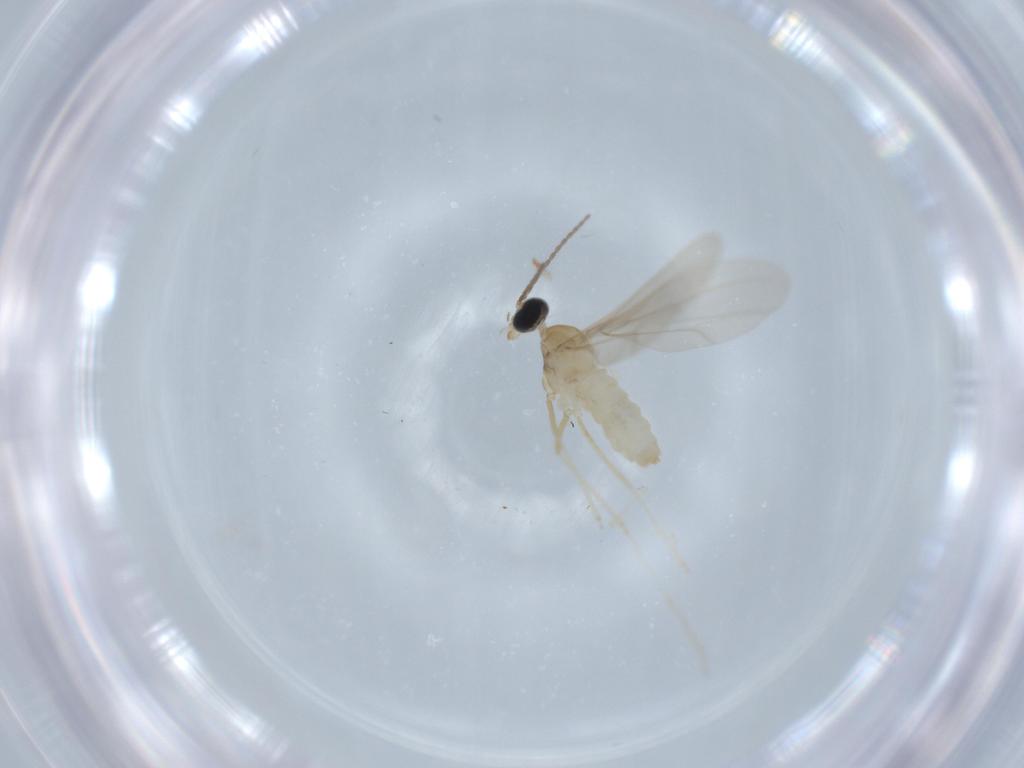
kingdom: Animalia
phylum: Arthropoda
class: Insecta
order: Diptera
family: Cecidomyiidae
